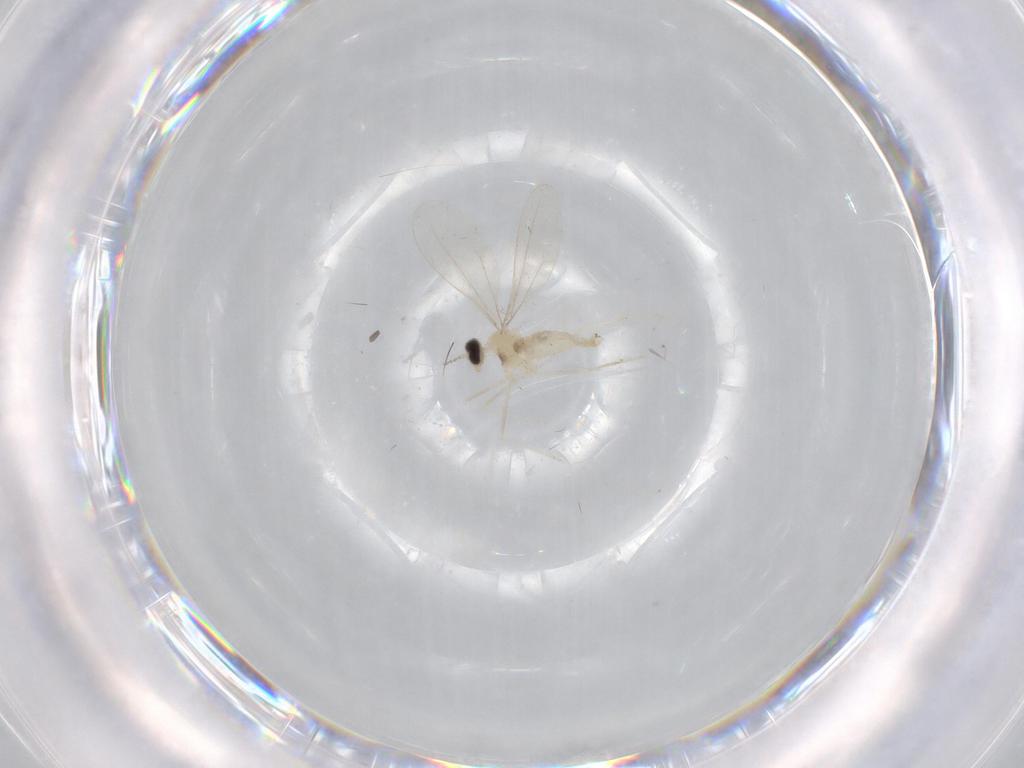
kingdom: Animalia
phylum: Arthropoda
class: Insecta
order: Diptera
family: Cecidomyiidae
